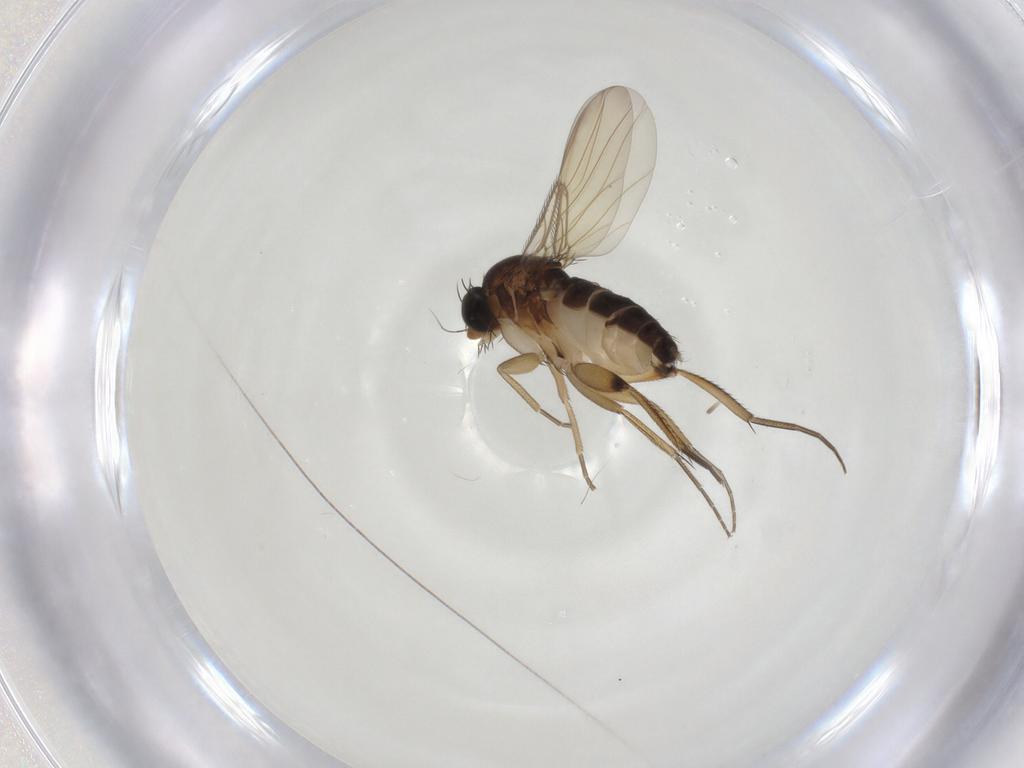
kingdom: Animalia
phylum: Arthropoda
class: Insecta
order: Diptera
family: Phoridae
